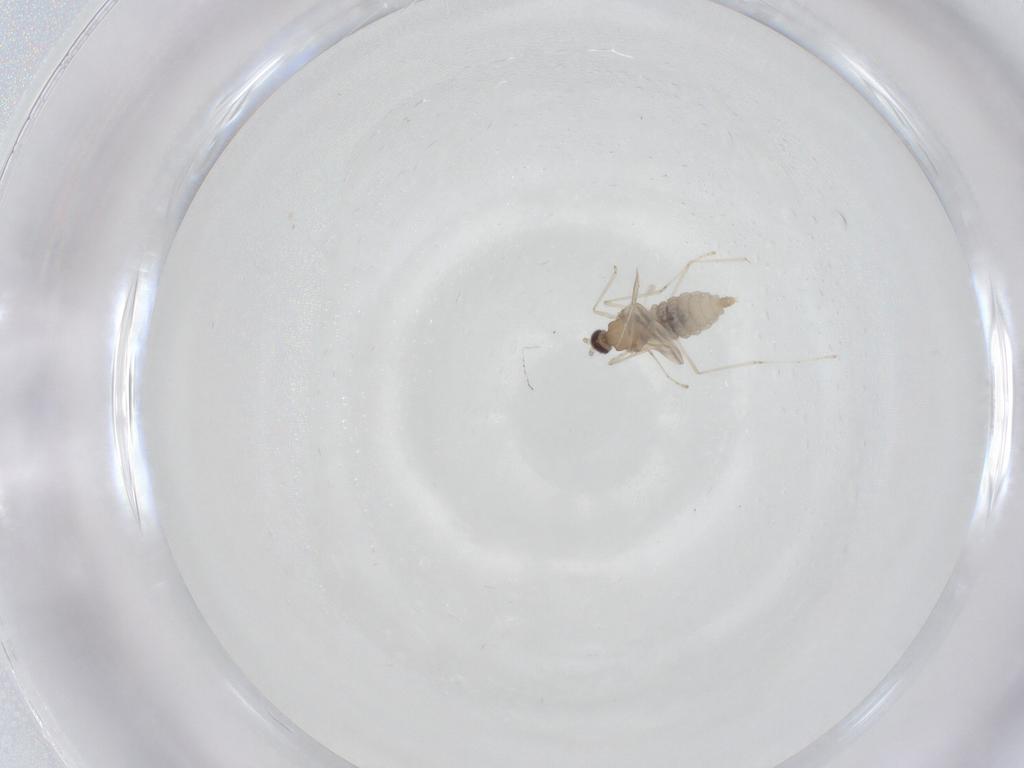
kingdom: Animalia
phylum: Arthropoda
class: Insecta
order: Diptera
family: Cecidomyiidae
